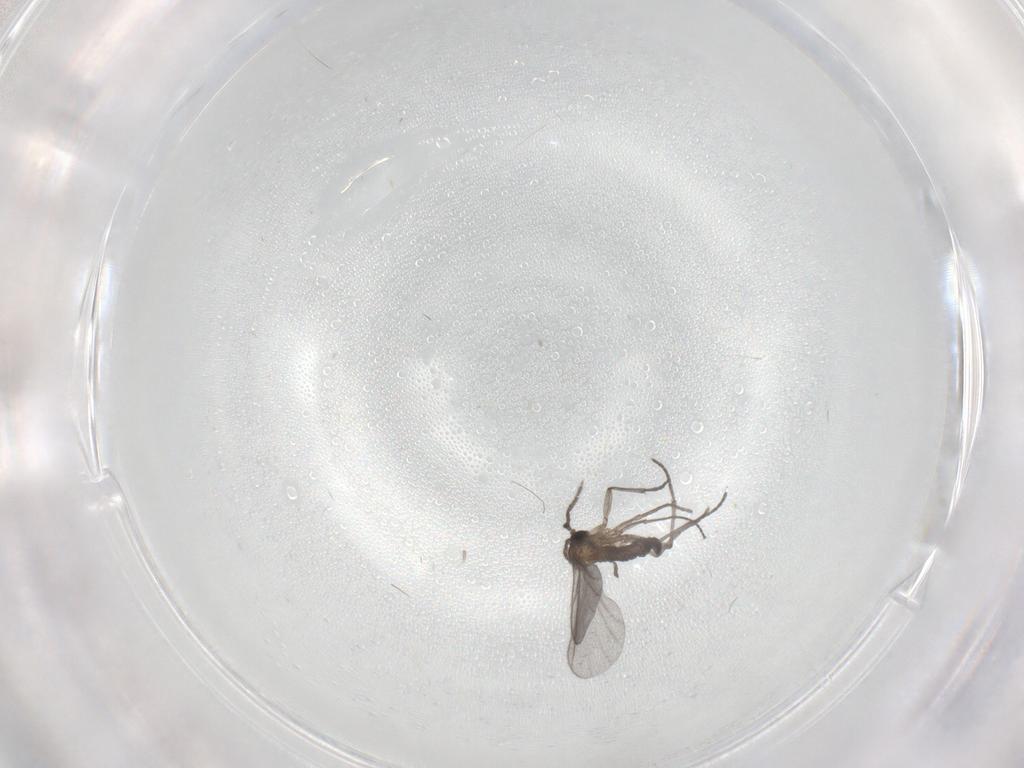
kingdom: Animalia
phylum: Arthropoda
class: Insecta
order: Diptera
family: Sciaridae
